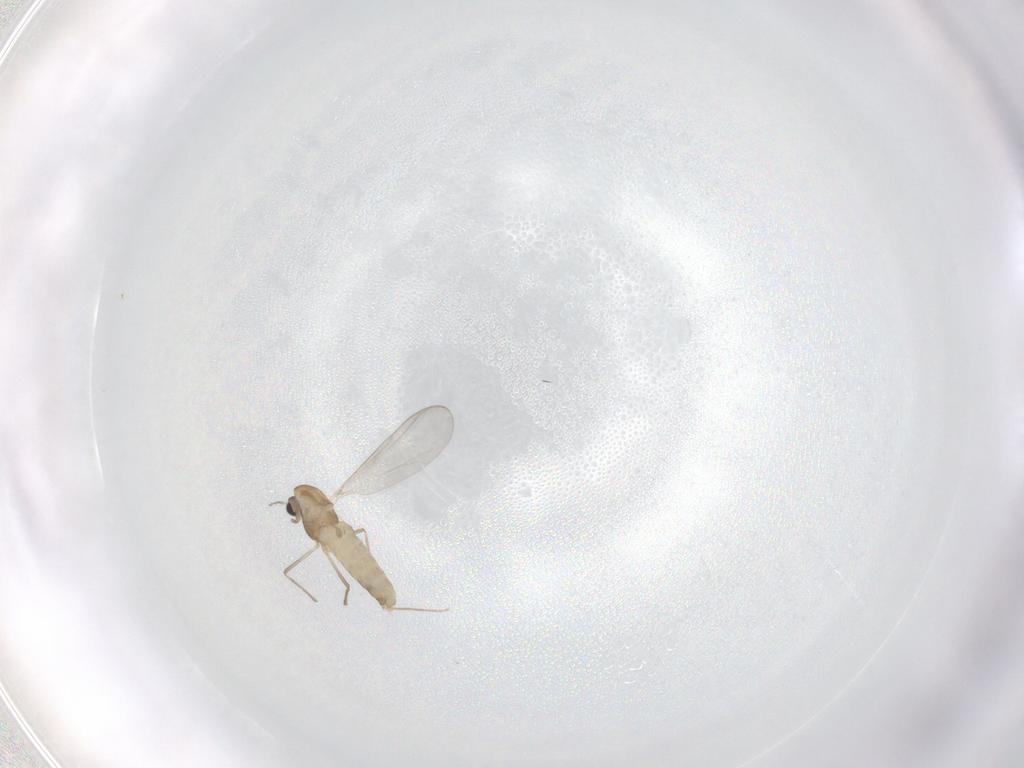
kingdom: Animalia
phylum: Arthropoda
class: Insecta
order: Diptera
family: Chironomidae
